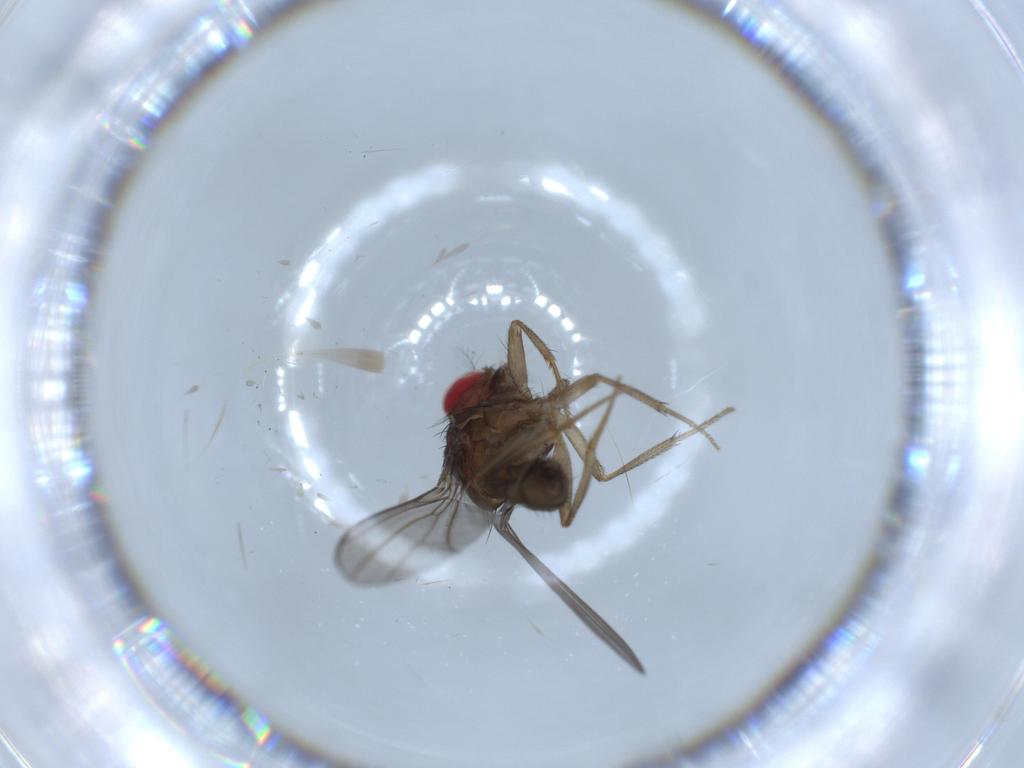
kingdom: Animalia
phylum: Arthropoda
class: Insecta
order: Diptera
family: Drosophilidae
